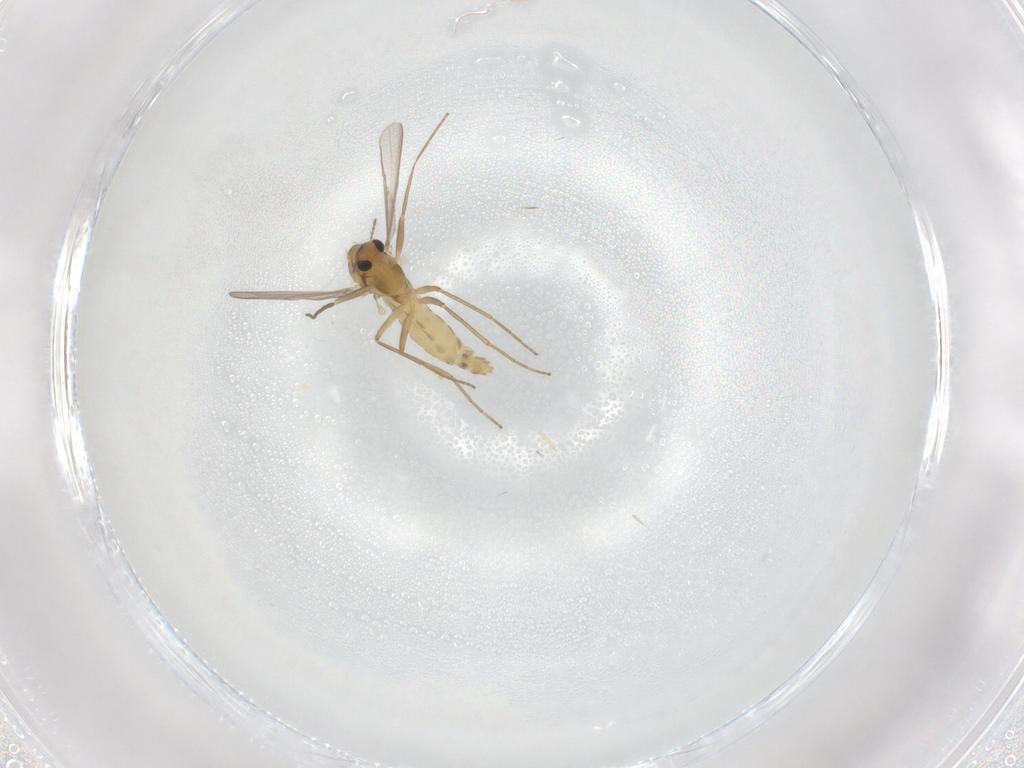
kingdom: Animalia
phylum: Arthropoda
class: Insecta
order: Diptera
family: Chironomidae
